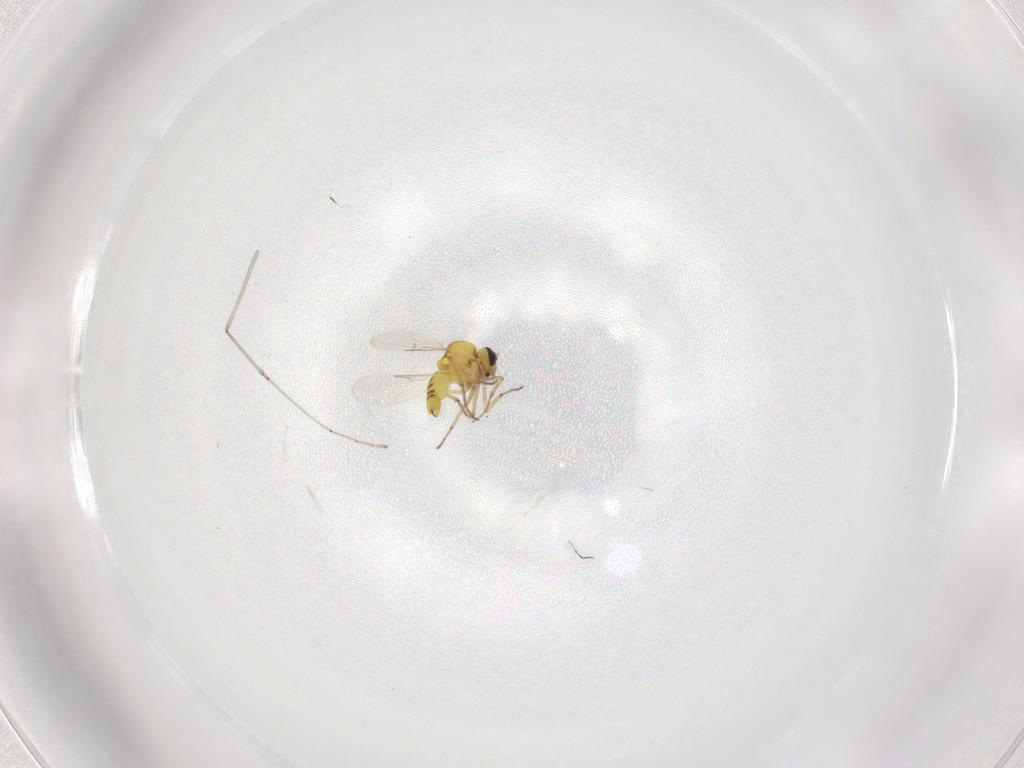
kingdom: Animalia
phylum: Arthropoda
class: Insecta
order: Diptera
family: Ceratopogonidae
